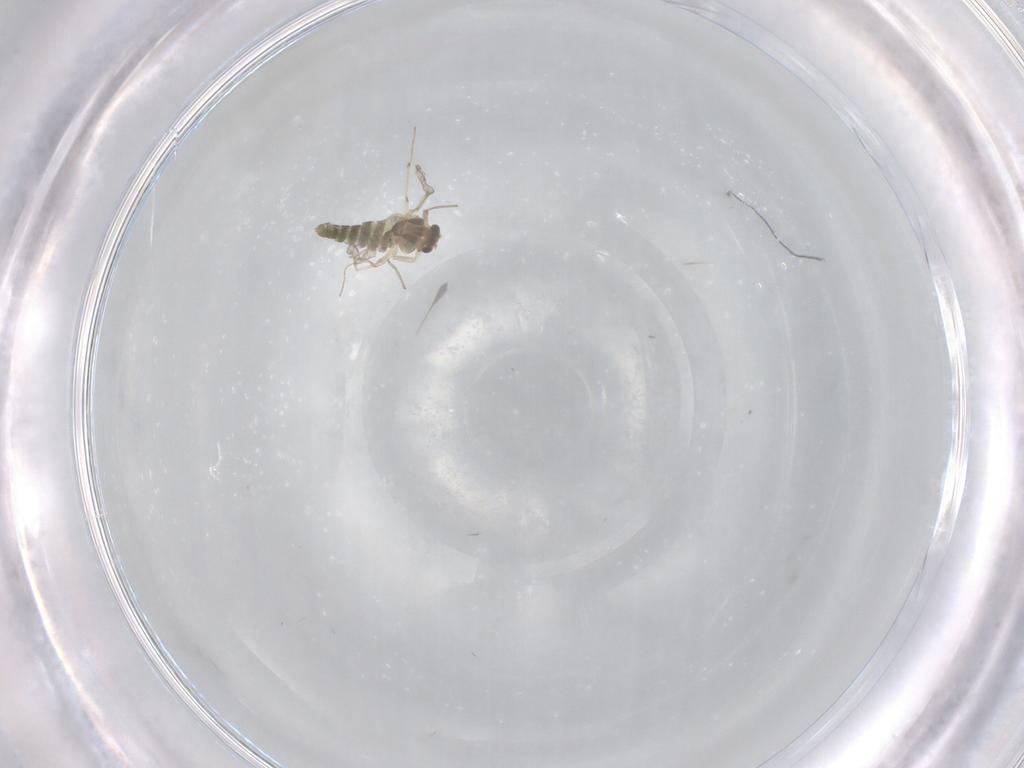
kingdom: Animalia
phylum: Arthropoda
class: Insecta
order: Diptera
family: Chironomidae
